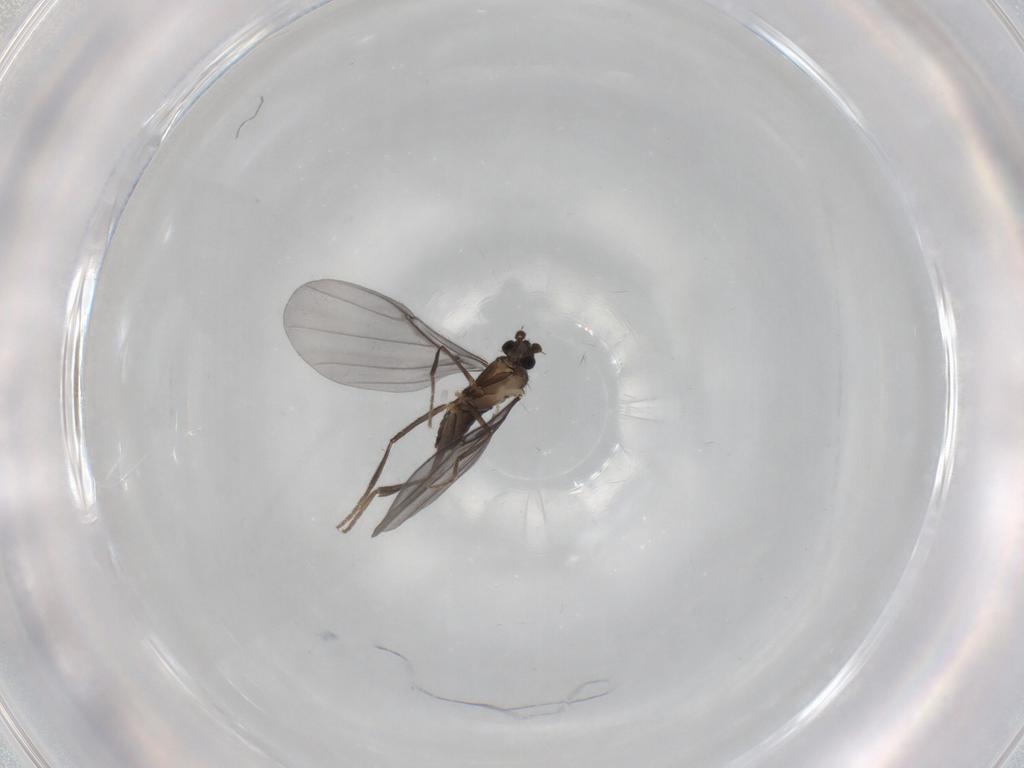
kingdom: Animalia
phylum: Arthropoda
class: Insecta
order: Diptera
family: Phoridae
